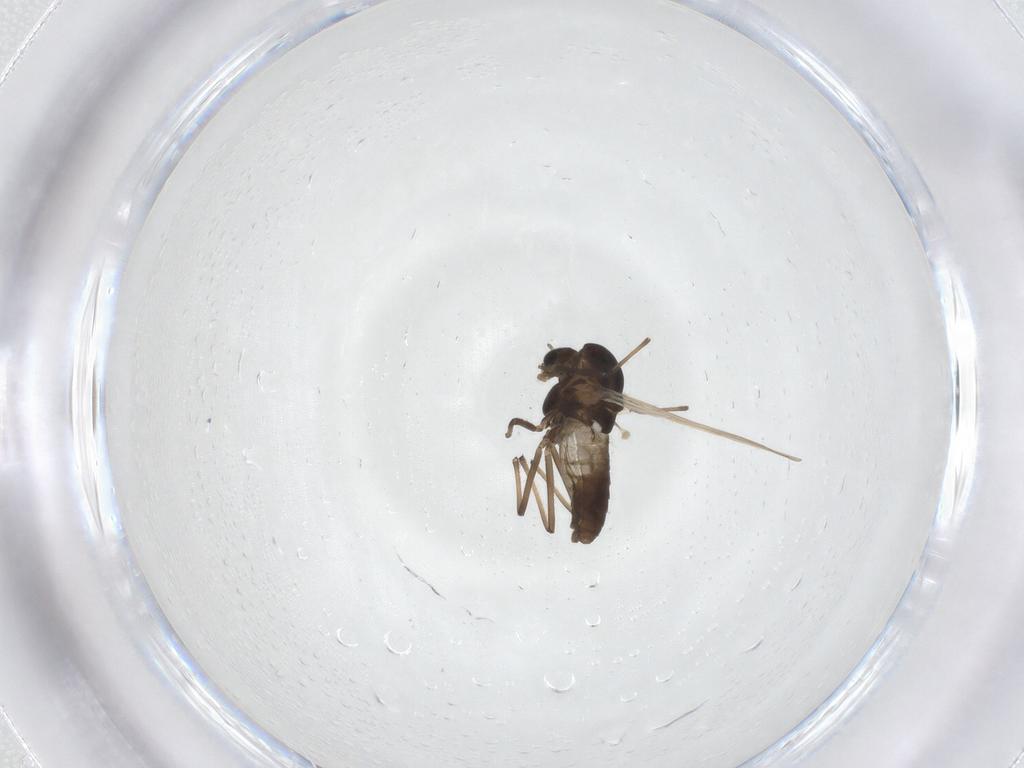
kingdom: Animalia
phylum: Arthropoda
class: Insecta
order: Diptera
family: Chironomidae
